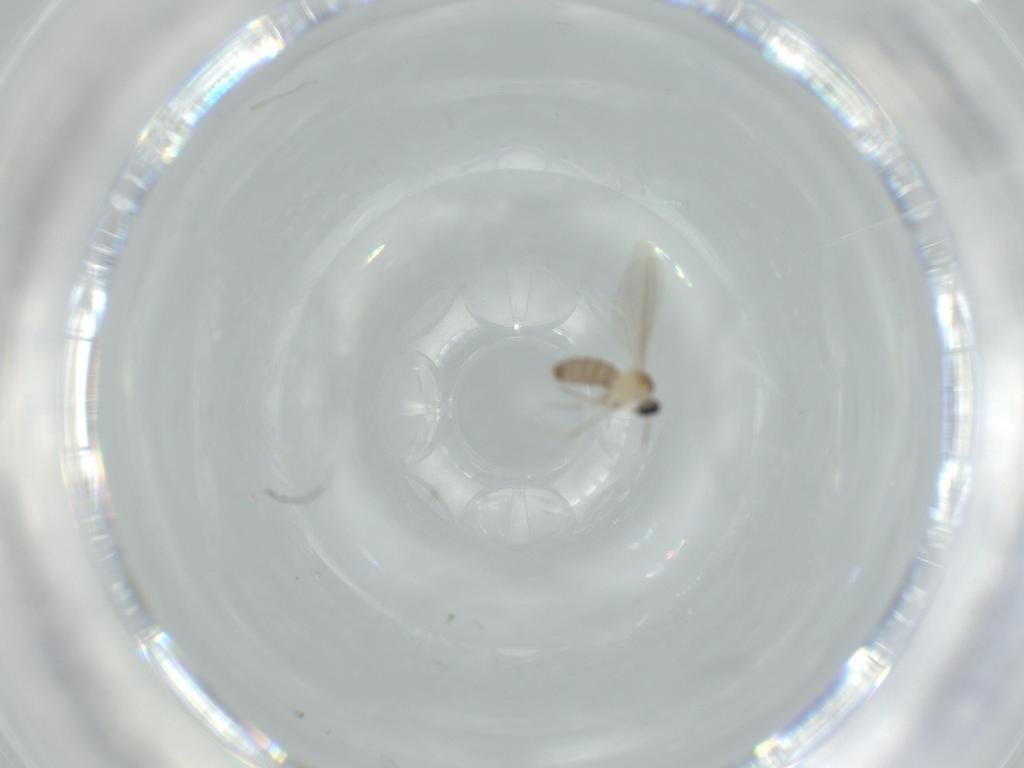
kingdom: Animalia
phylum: Arthropoda
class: Insecta
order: Diptera
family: Cecidomyiidae
